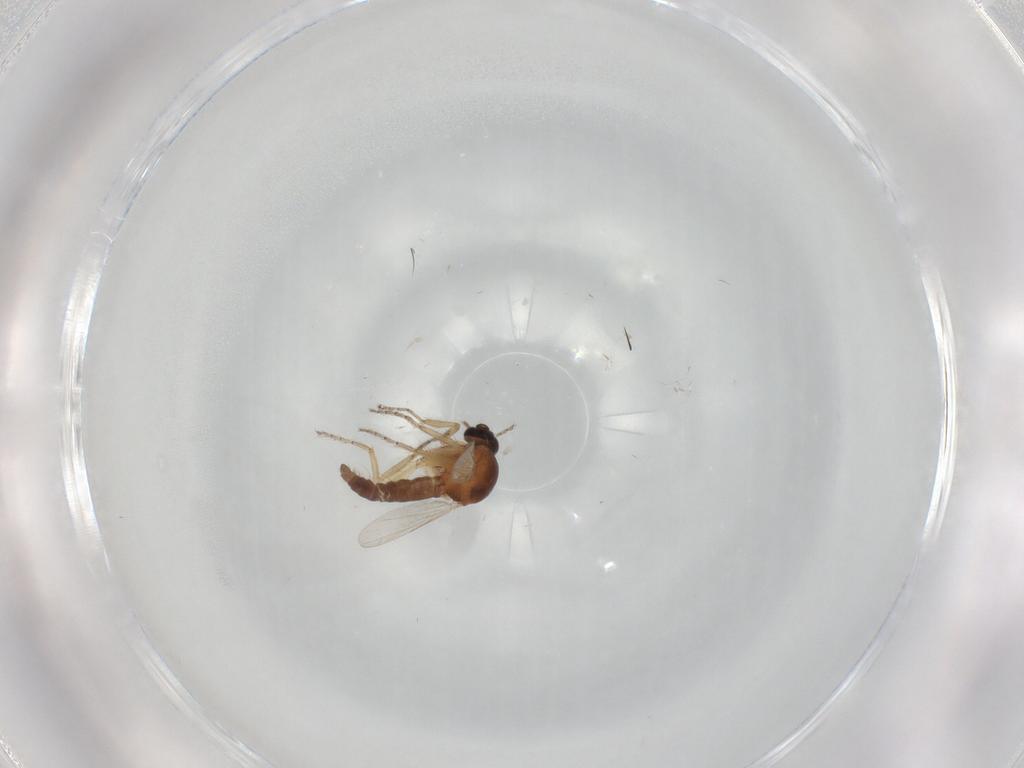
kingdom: Animalia
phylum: Arthropoda
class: Insecta
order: Diptera
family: Ceratopogonidae
